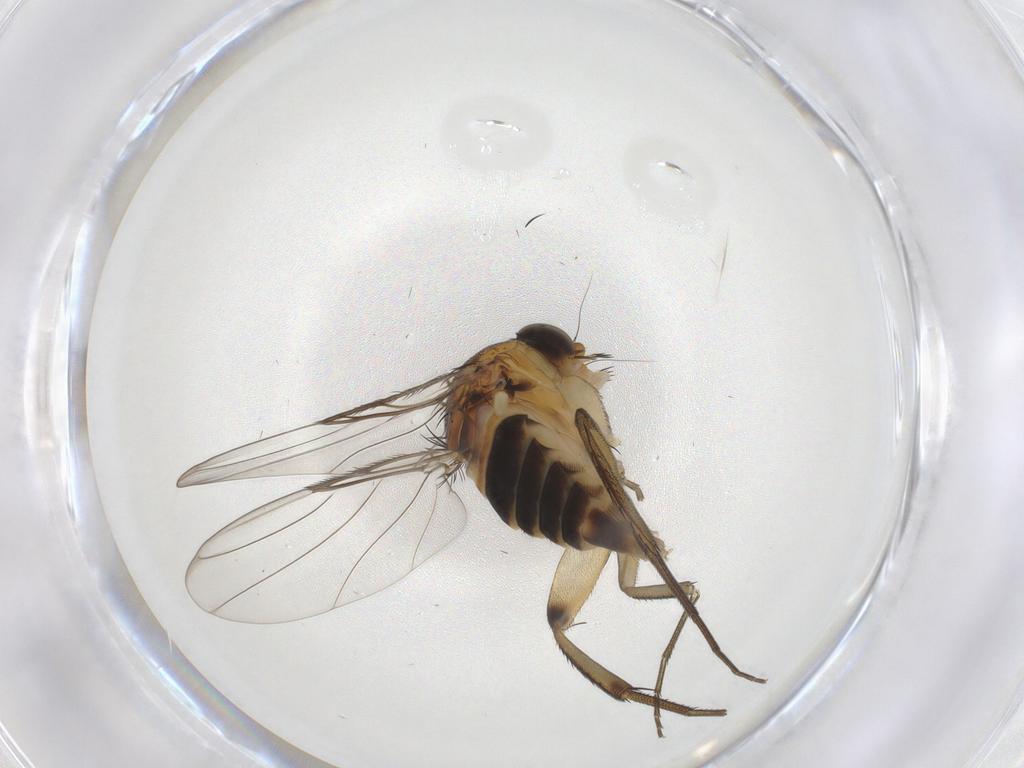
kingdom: Animalia
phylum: Arthropoda
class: Insecta
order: Diptera
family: Phoridae
